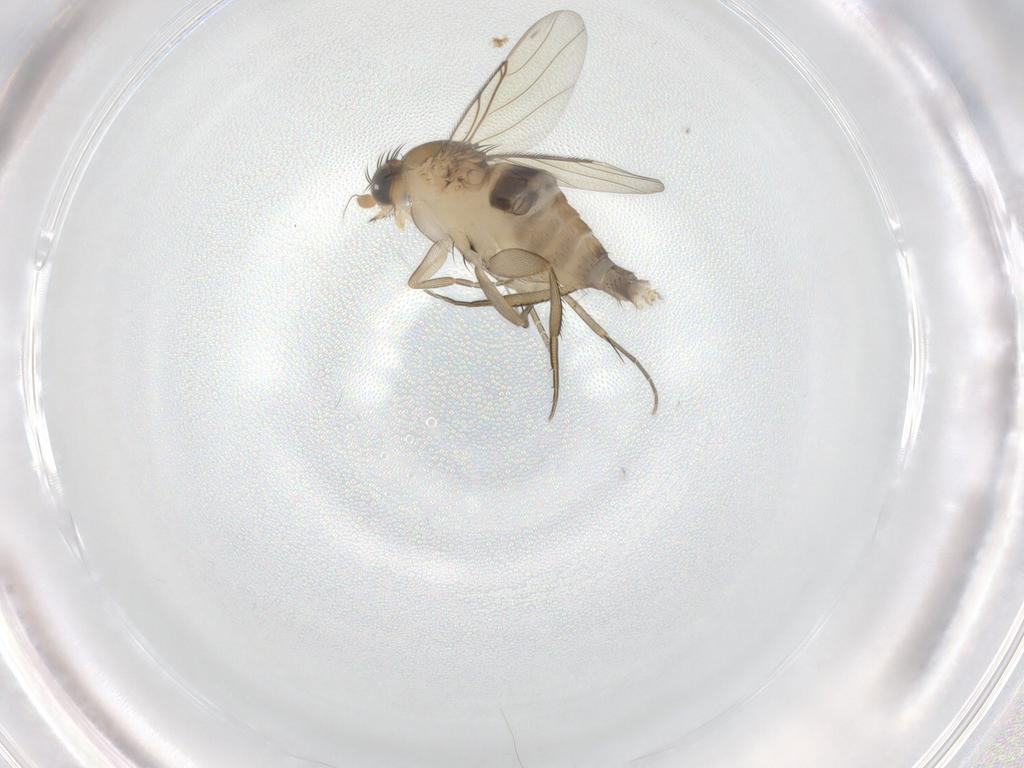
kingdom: Animalia
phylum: Arthropoda
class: Insecta
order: Diptera
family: Phoridae
